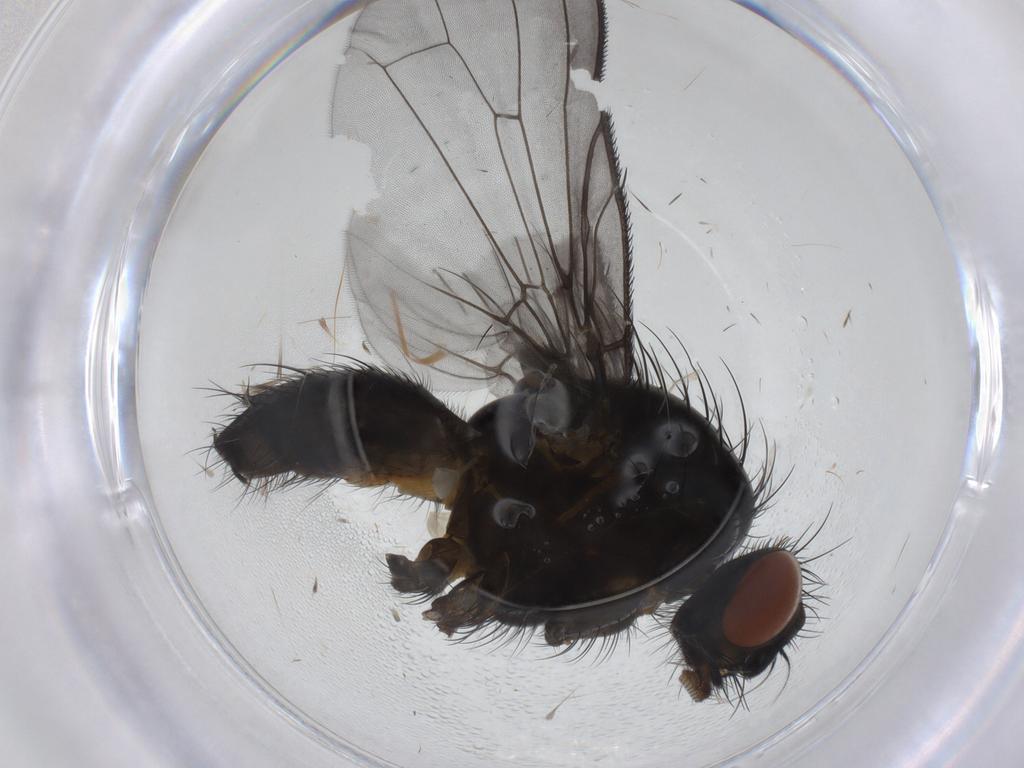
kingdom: Animalia
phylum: Arthropoda
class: Insecta
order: Diptera
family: Anthomyiidae
